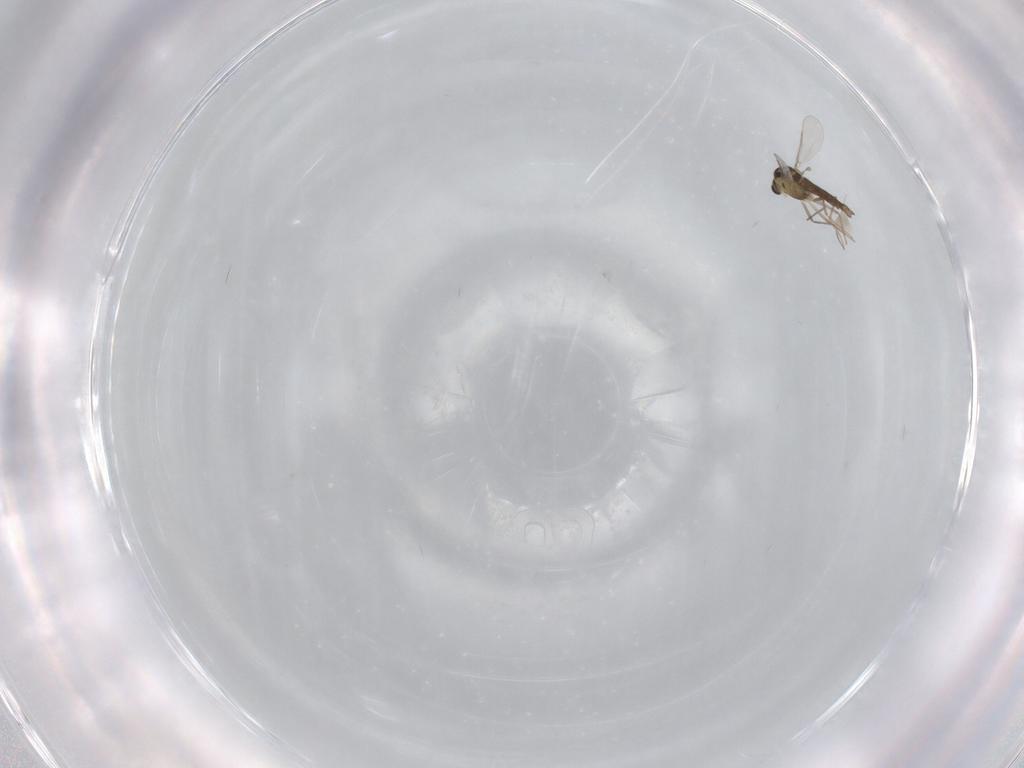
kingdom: Animalia
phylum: Arthropoda
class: Insecta
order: Diptera
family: Chironomidae
